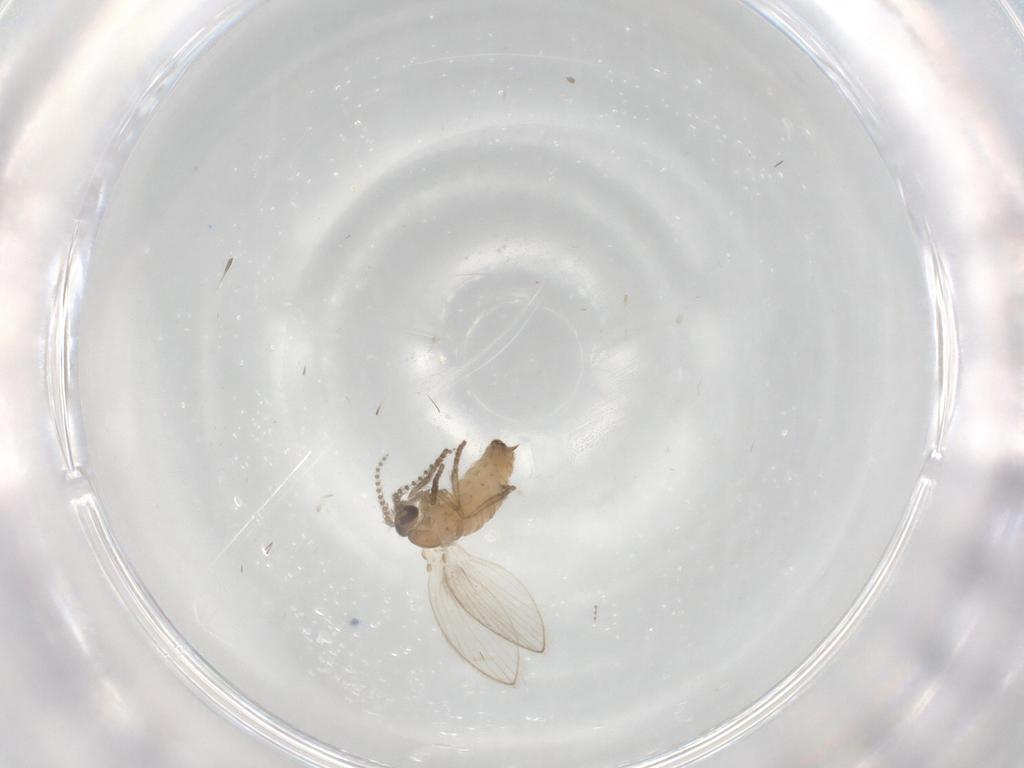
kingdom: Animalia
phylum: Arthropoda
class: Insecta
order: Diptera
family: Psychodidae
